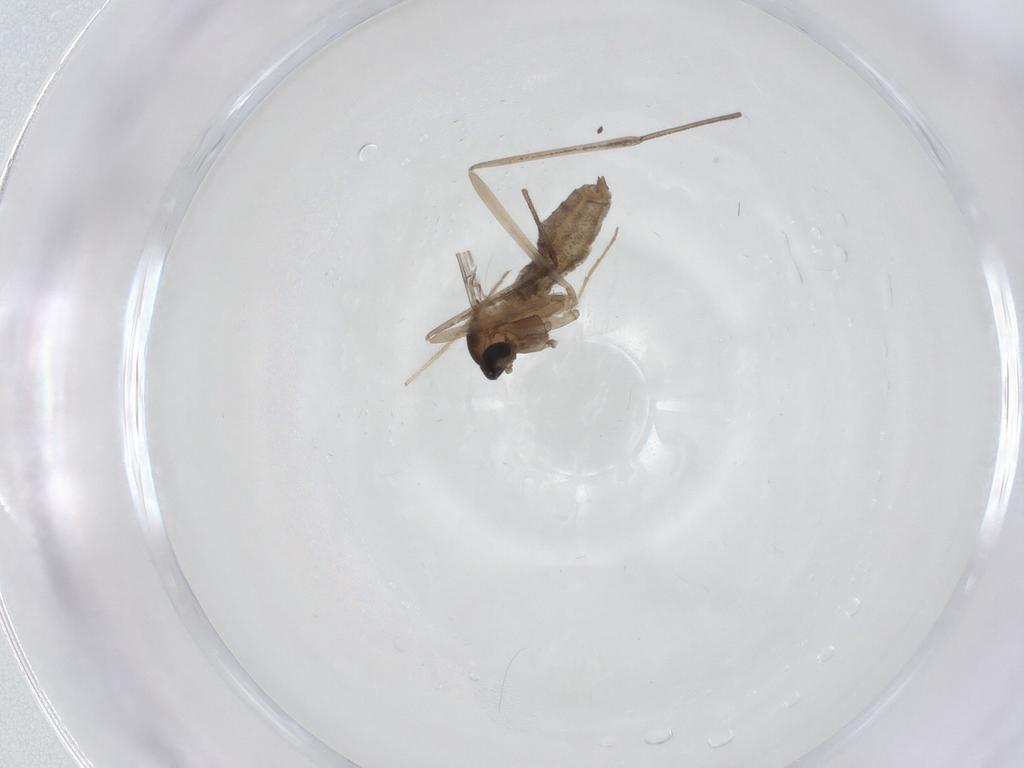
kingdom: Animalia
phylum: Arthropoda
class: Insecta
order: Diptera
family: Cecidomyiidae
